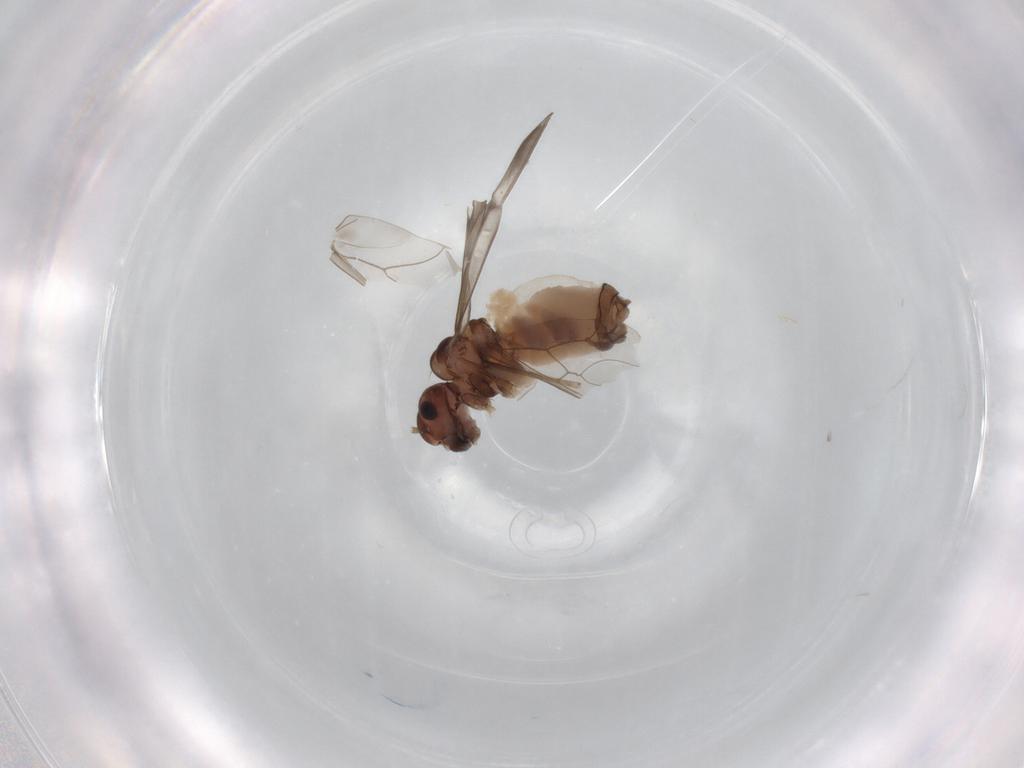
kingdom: Animalia
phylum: Arthropoda
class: Insecta
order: Psocodea
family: Peripsocidae
